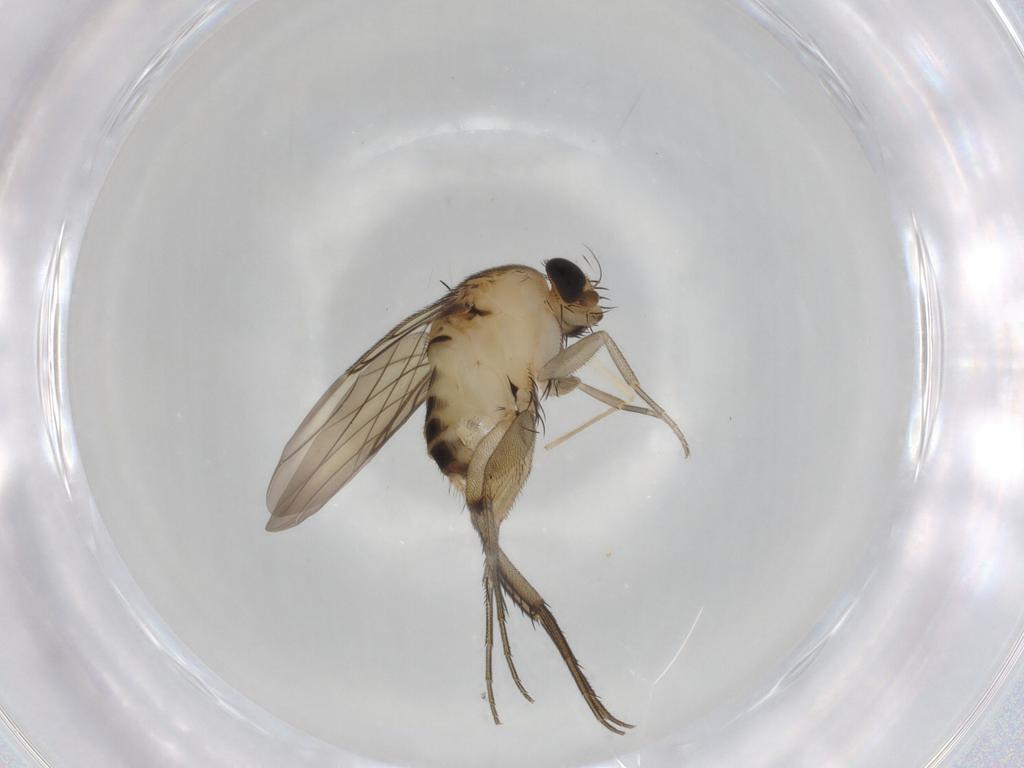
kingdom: Animalia
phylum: Arthropoda
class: Insecta
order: Diptera
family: Phoridae
